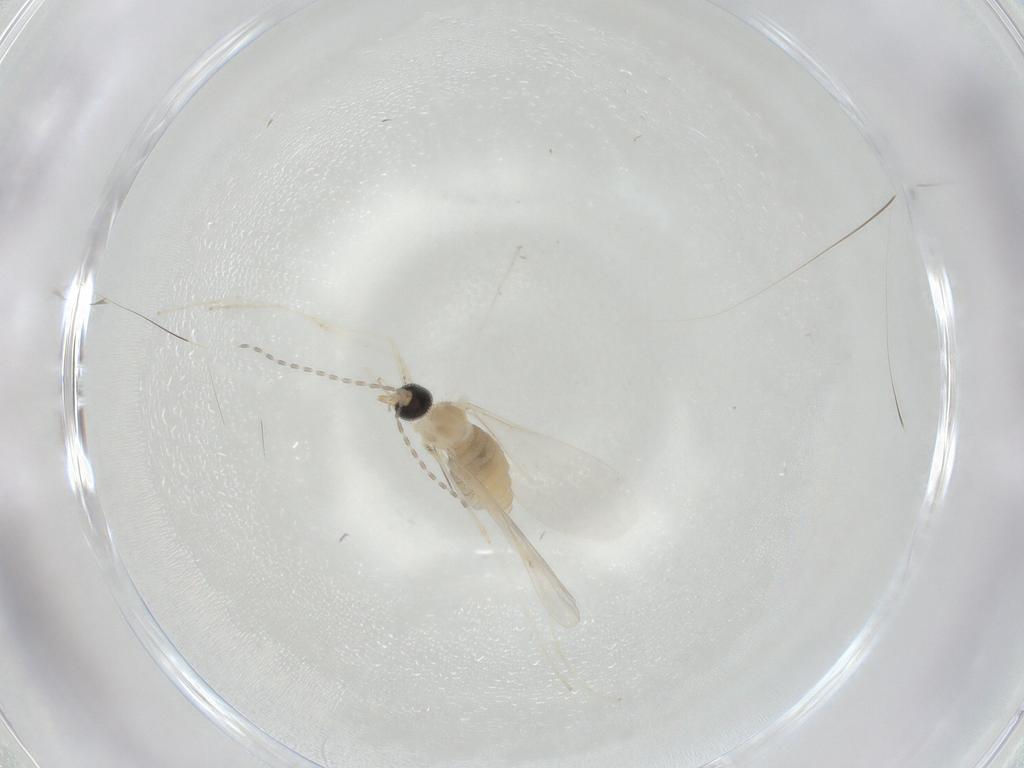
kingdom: Animalia
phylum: Arthropoda
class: Insecta
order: Diptera
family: Cecidomyiidae
